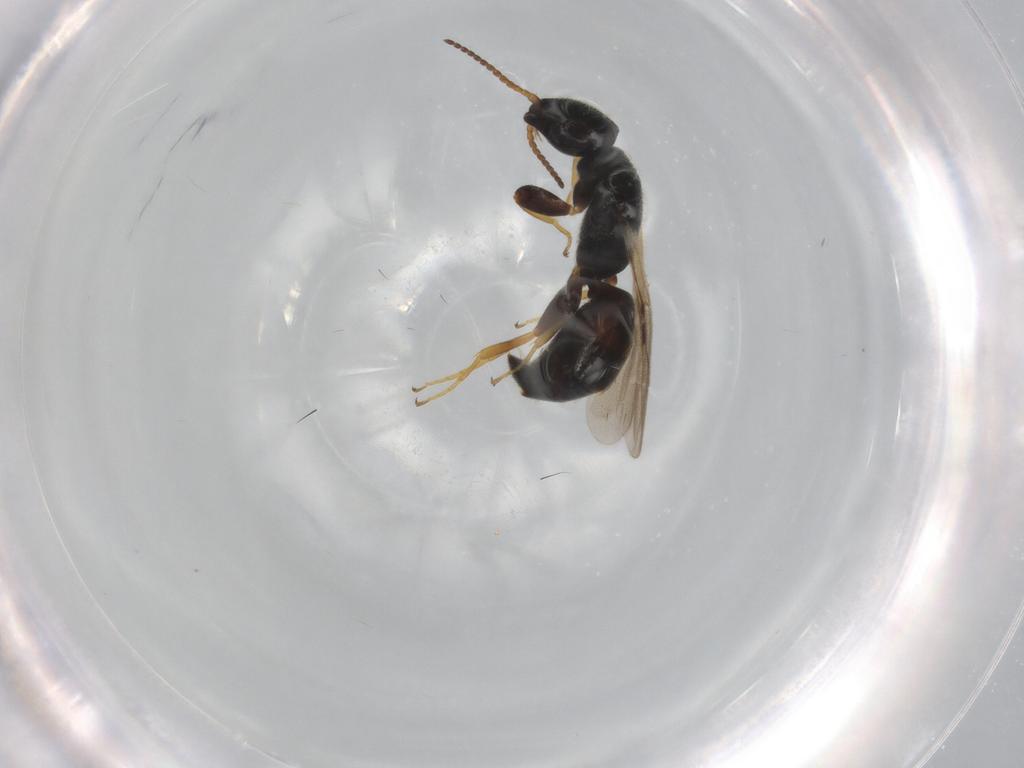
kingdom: Animalia
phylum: Arthropoda
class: Insecta
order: Hymenoptera
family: Bethylidae
